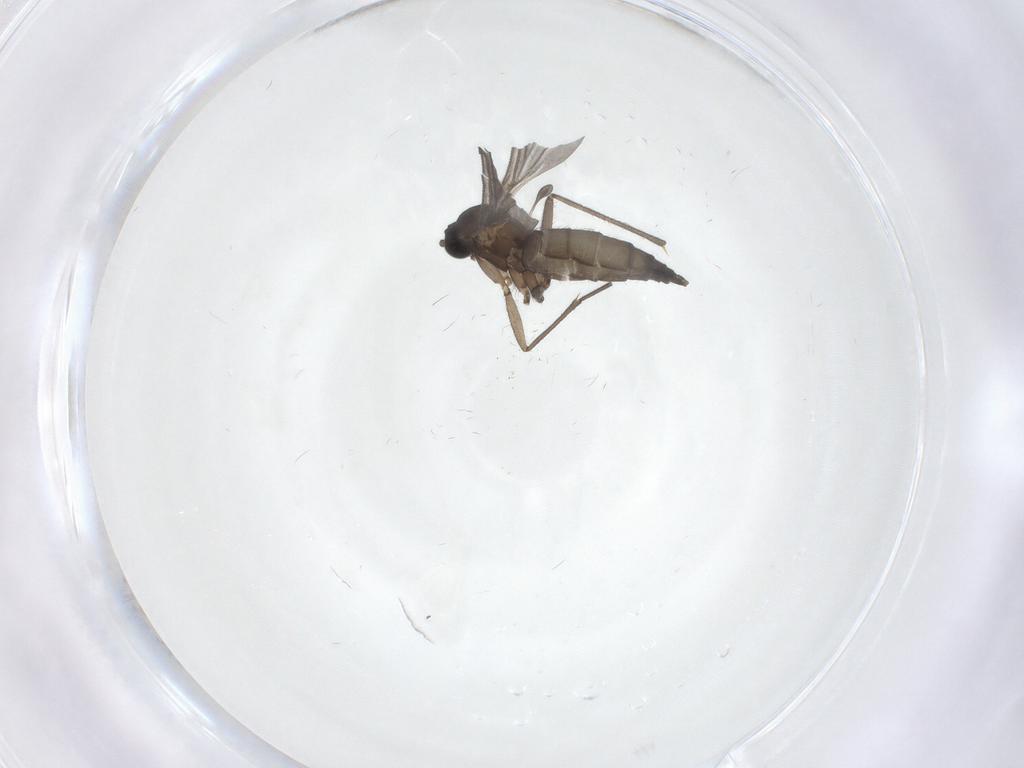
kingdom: Animalia
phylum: Arthropoda
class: Insecta
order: Diptera
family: Sciaridae
